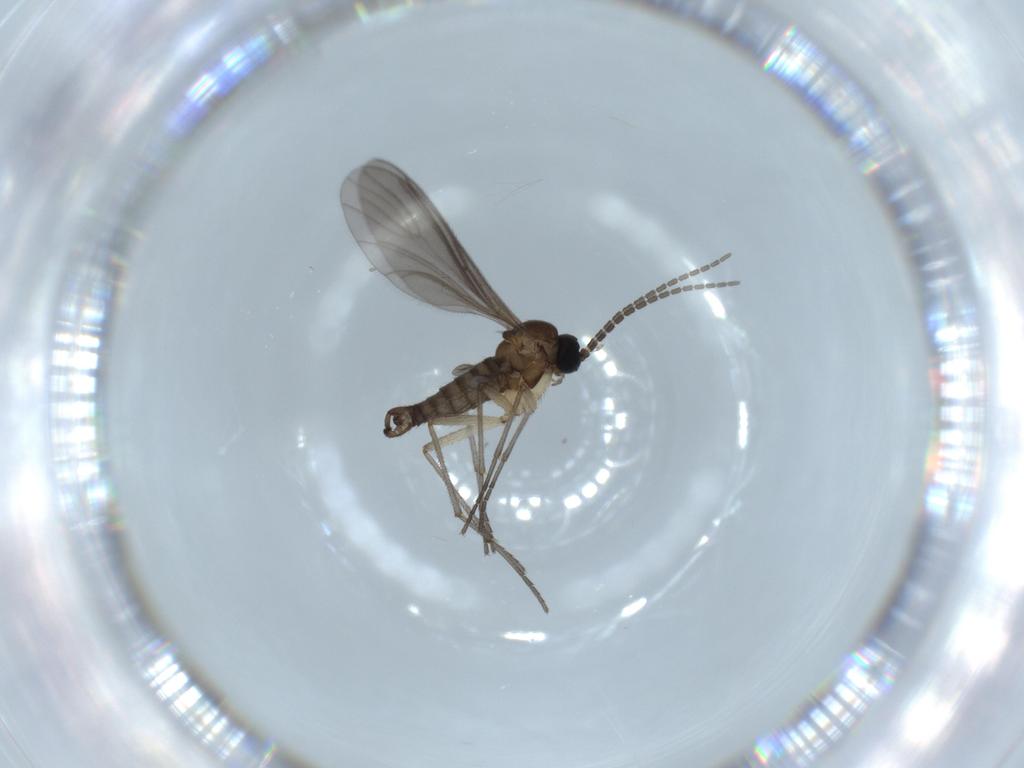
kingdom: Animalia
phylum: Arthropoda
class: Insecta
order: Diptera
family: Sciaridae
